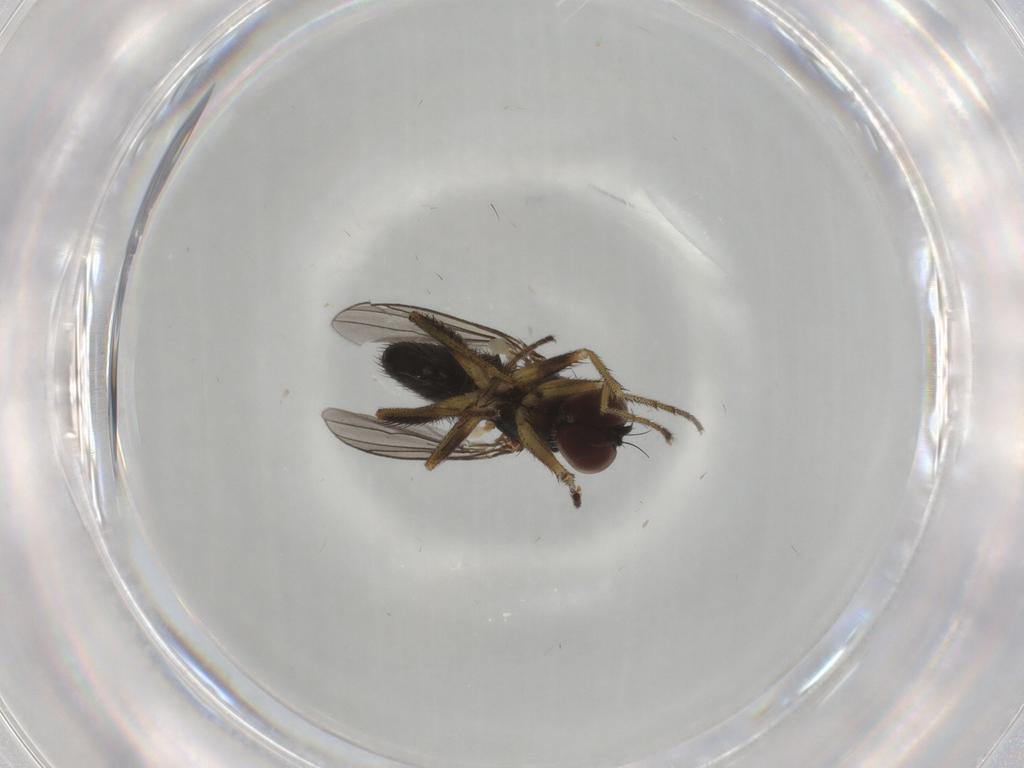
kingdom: Animalia
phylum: Arthropoda
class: Insecta
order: Diptera
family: Dolichopodidae
